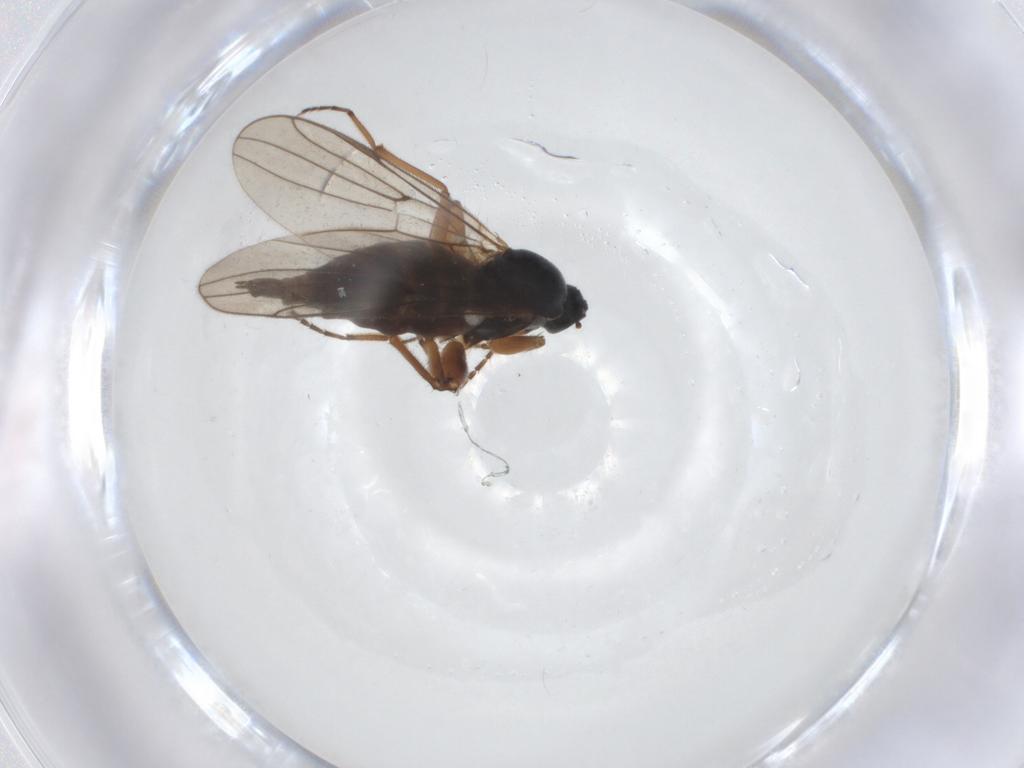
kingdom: Animalia
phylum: Arthropoda
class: Insecta
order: Diptera
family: Hybotidae
